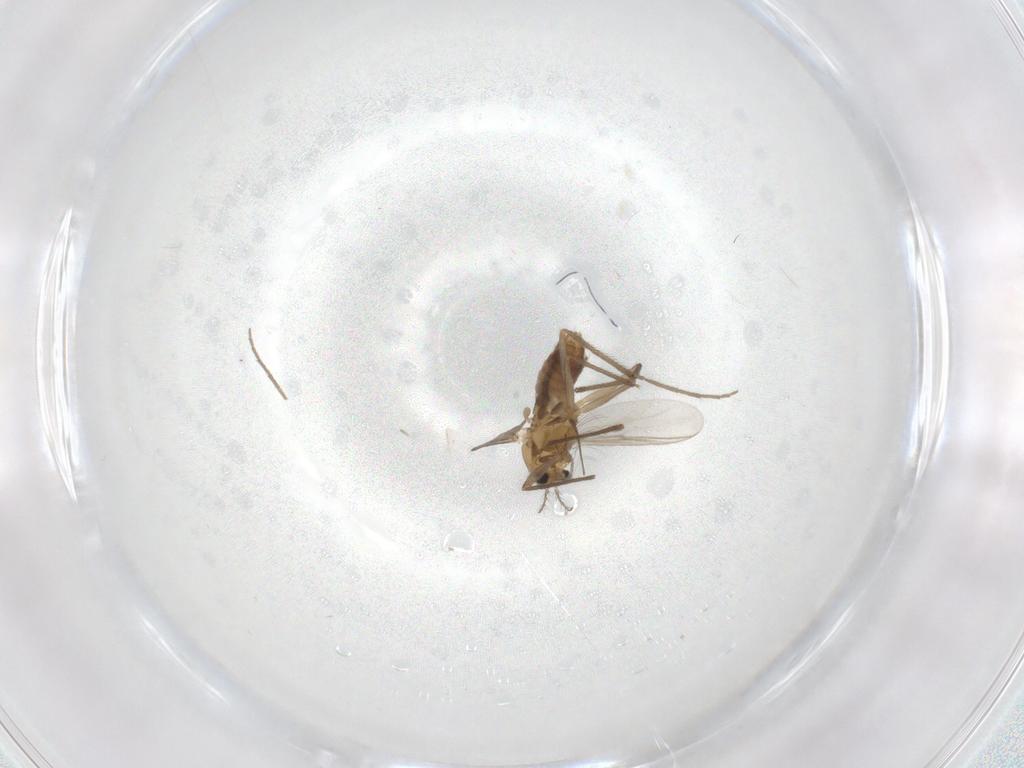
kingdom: Animalia
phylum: Arthropoda
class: Insecta
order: Diptera
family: Chironomidae
